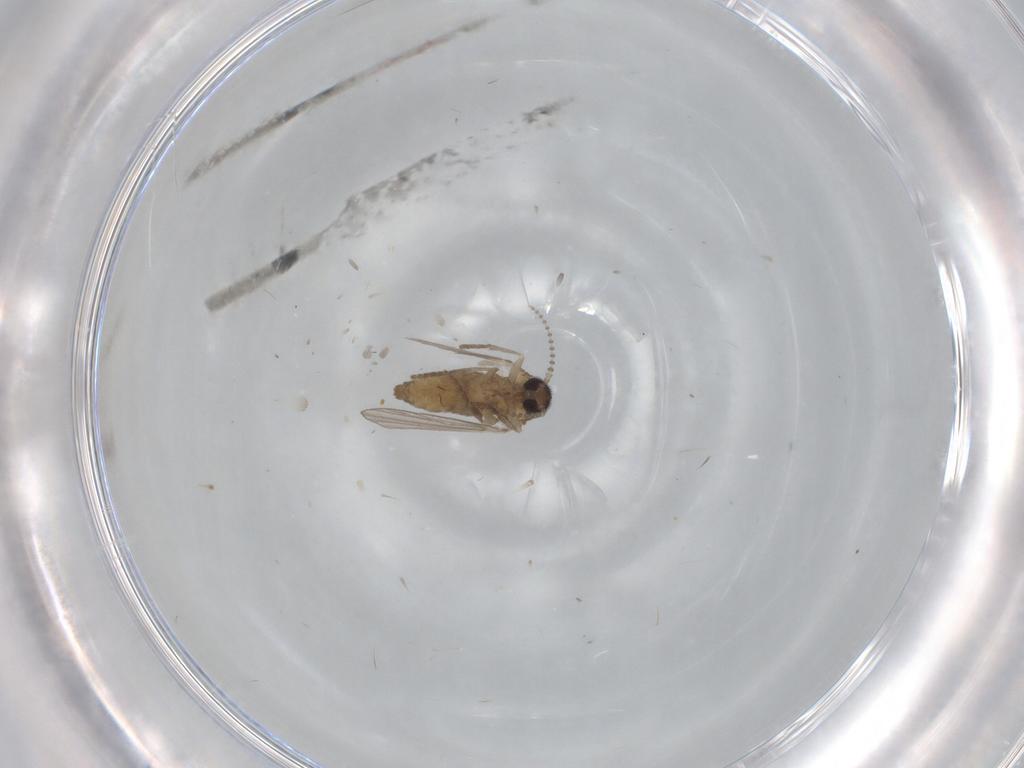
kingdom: Animalia
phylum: Arthropoda
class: Insecta
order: Diptera
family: Psychodidae
